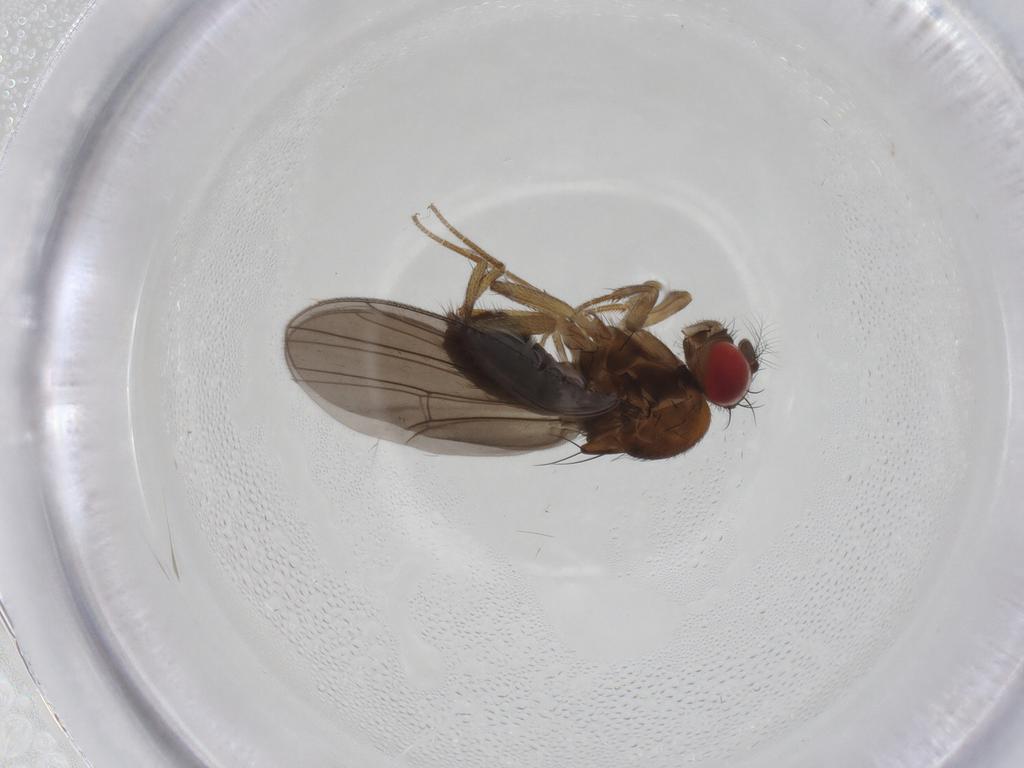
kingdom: Animalia
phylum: Arthropoda
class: Insecta
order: Diptera
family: Drosophilidae
